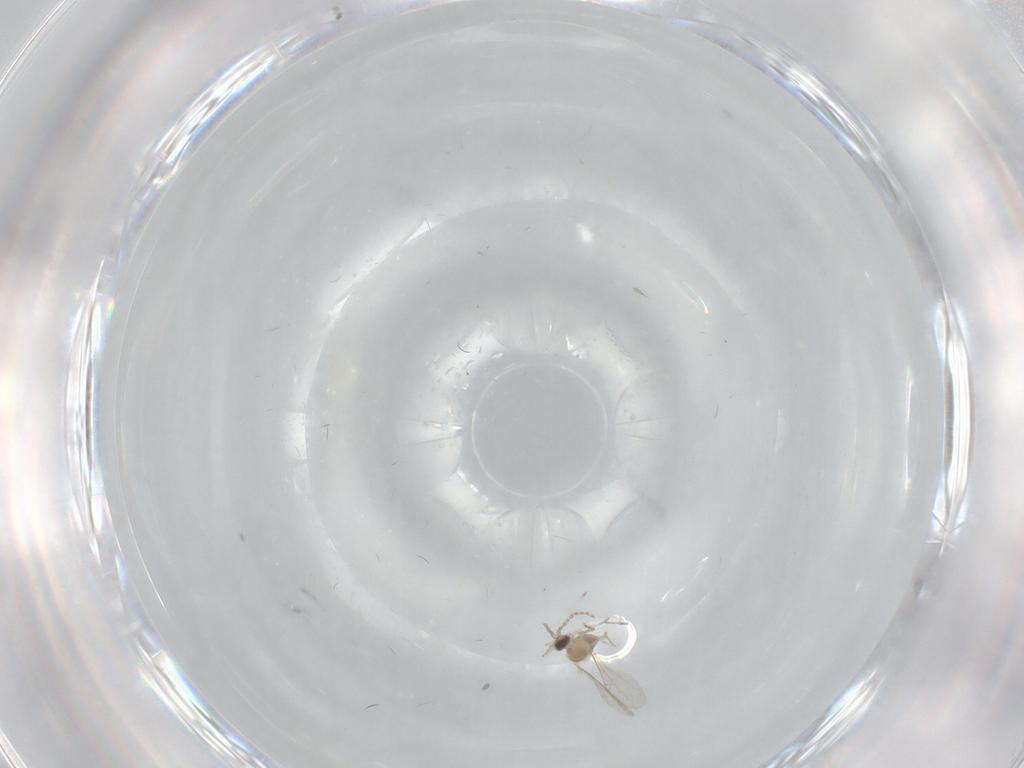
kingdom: Animalia
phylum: Arthropoda
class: Insecta
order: Diptera
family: Cecidomyiidae
